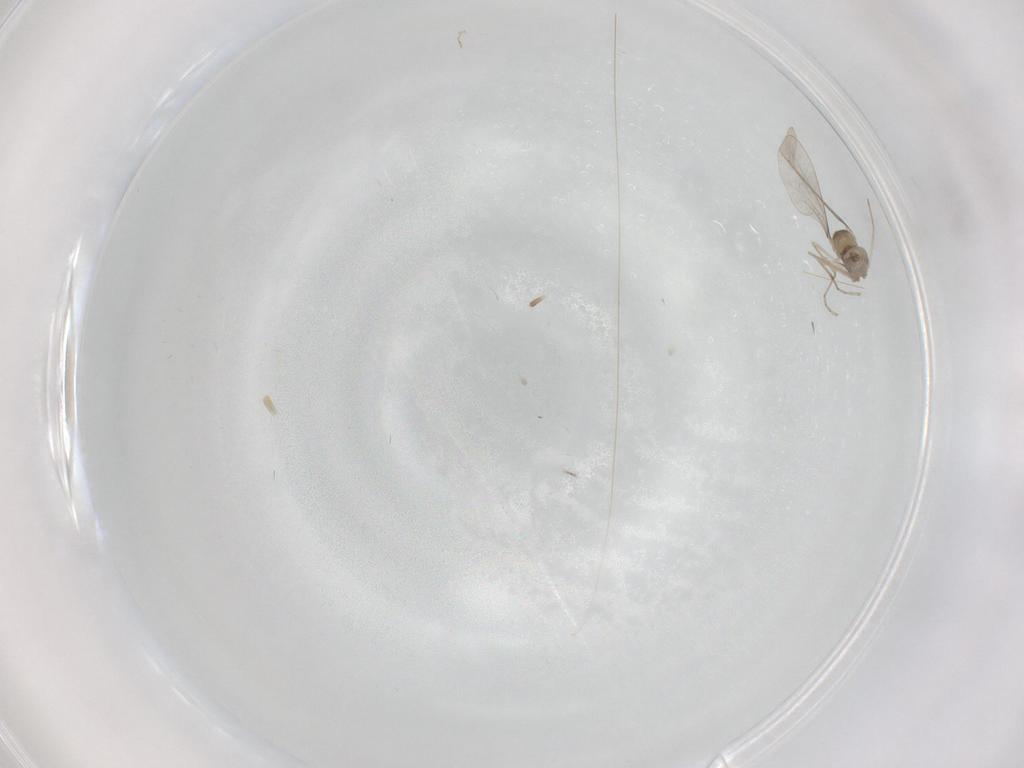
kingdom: Animalia
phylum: Arthropoda
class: Insecta
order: Diptera
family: Cecidomyiidae
